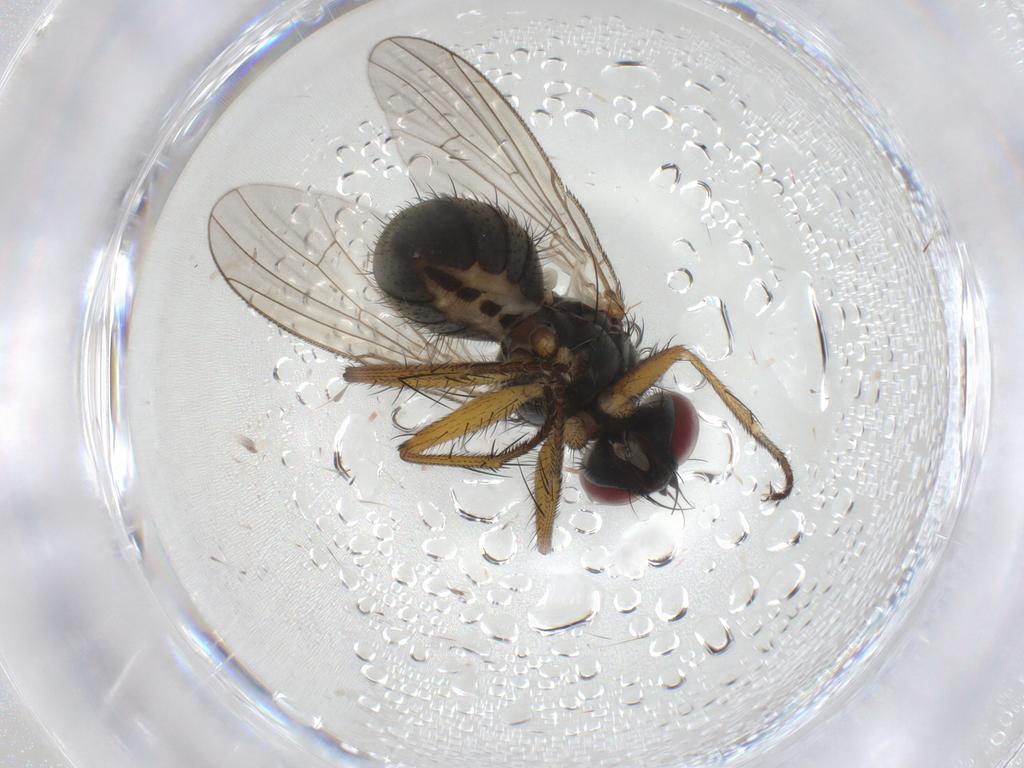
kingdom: Animalia
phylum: Arthropoda
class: Insecta
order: Diptera
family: Muscidae
